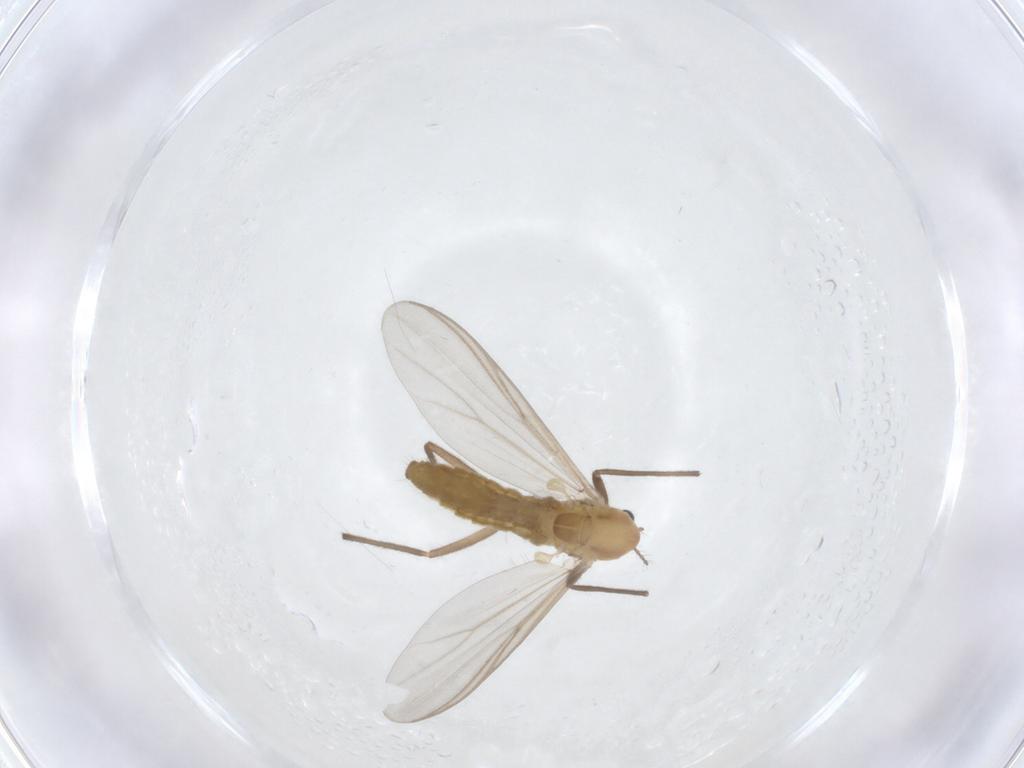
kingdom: Animalia
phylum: Arthropoda
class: Insecta
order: Diptera
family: Chironomidae
